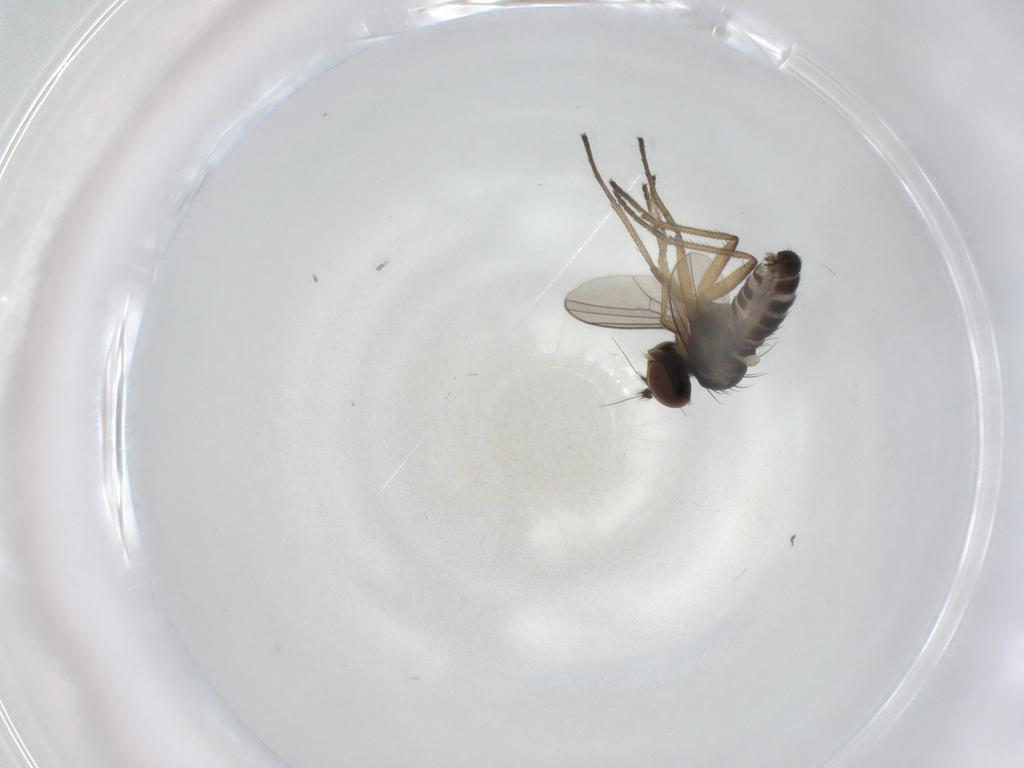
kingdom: Animalia
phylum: Arthropoda
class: Insecta
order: Diptera
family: Dolichopodidae
